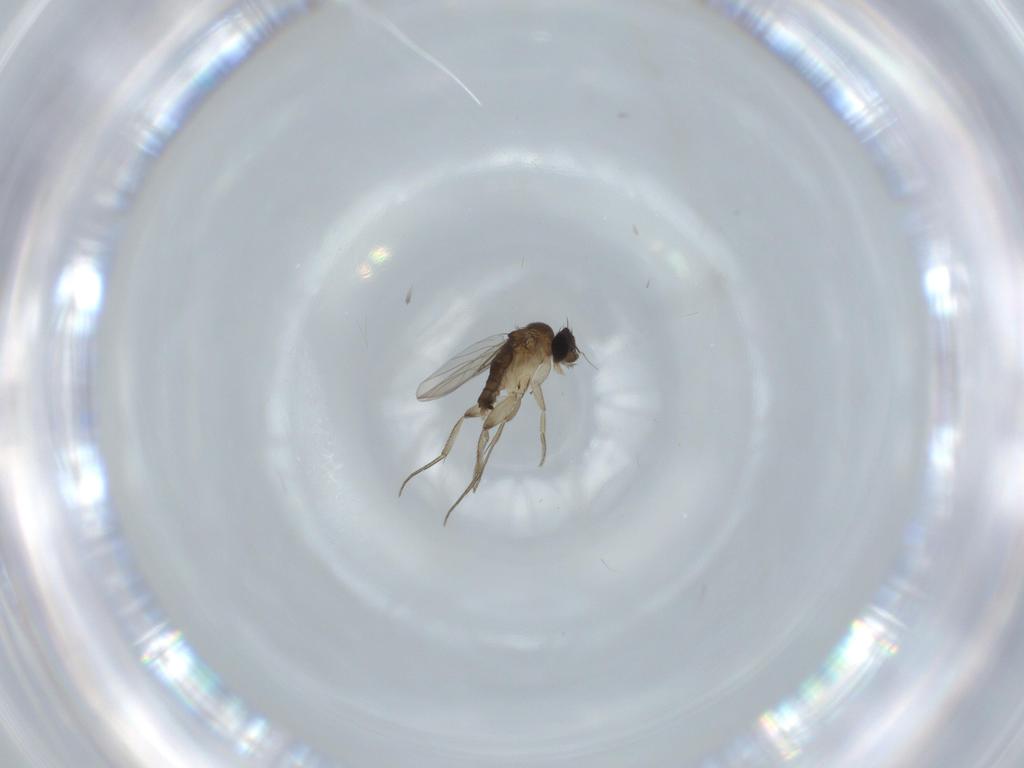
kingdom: Animalia
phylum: Arthropoda
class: Insecta
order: Diptera
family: Phoridae
